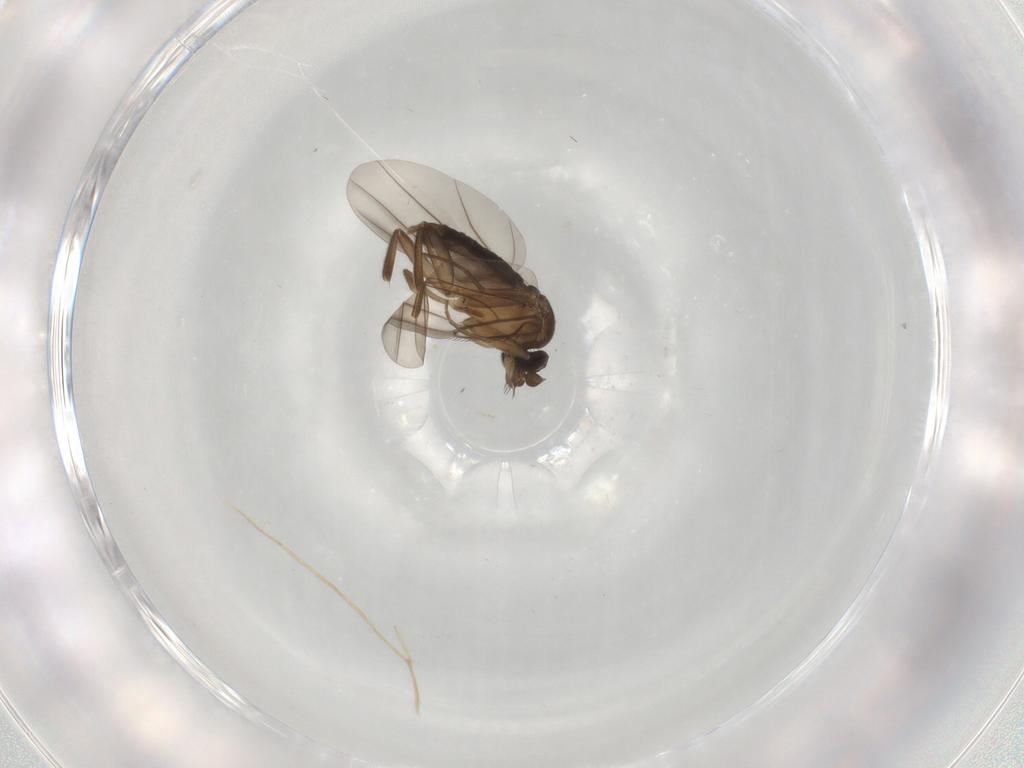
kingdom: Animalia
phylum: Arthropoda
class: Insecta
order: Diptera
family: Phoridae
